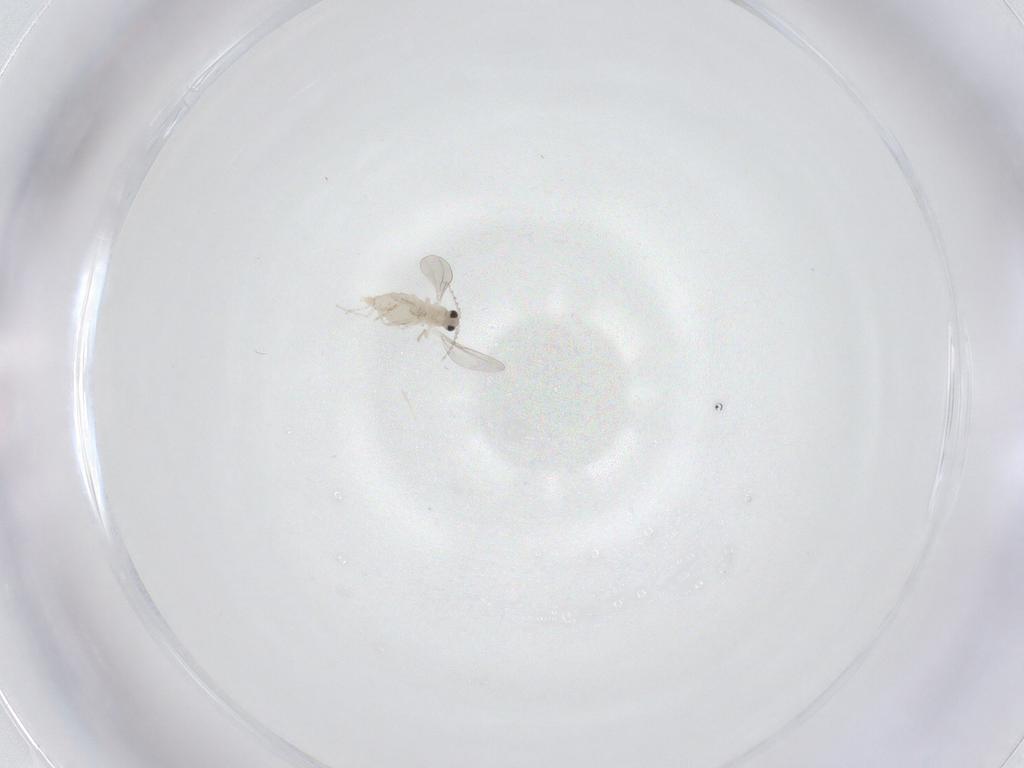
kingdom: Animalia
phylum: Arthropoda
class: Insecta
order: Diptera
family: Cecidomyiidae
